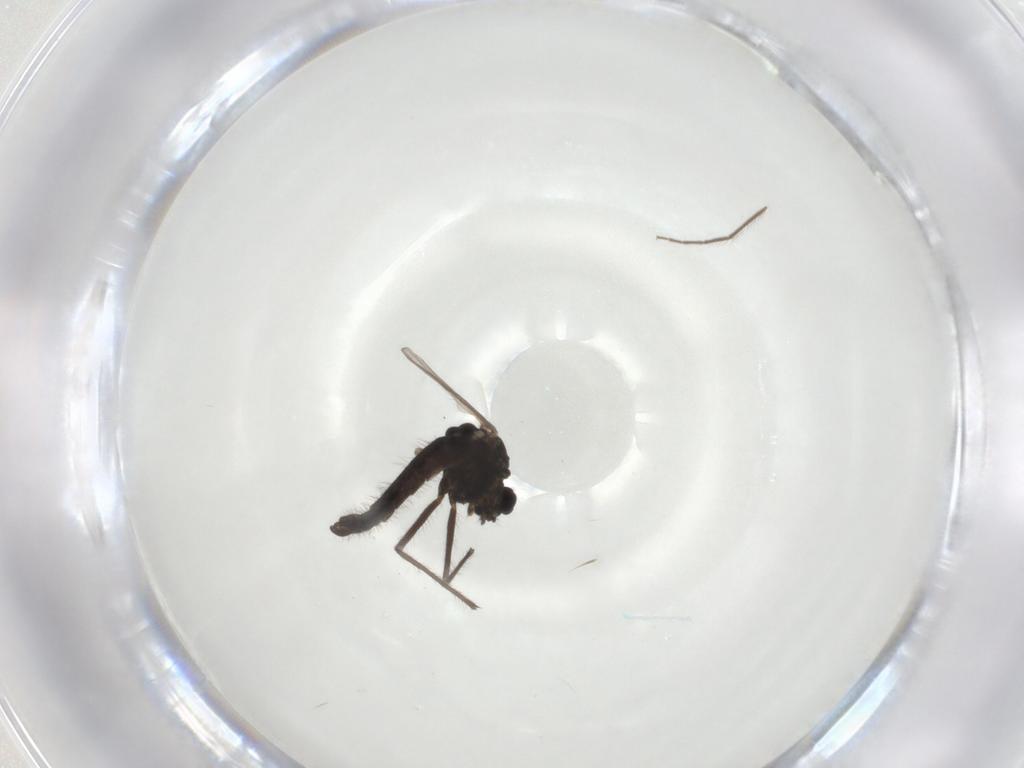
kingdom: Animalia
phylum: Arthropoda
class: Insecta
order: Diptera
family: Chironomidae
